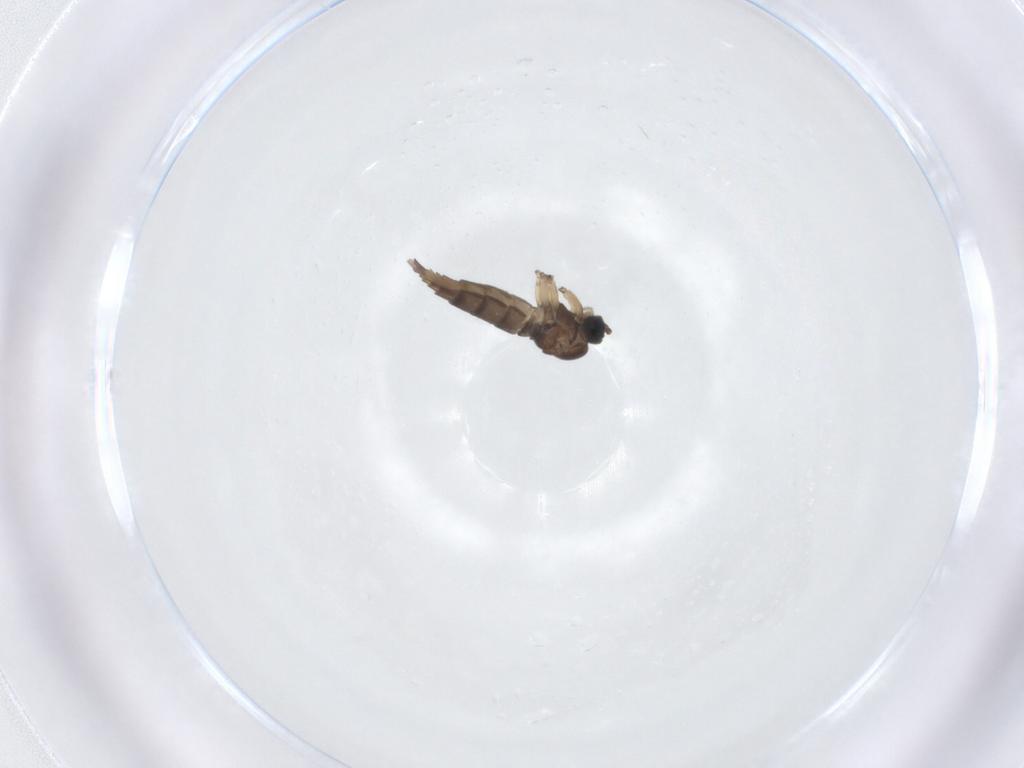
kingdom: Animalia
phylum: Arthropoda
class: Insecta
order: Diptera
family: Sciaridae
